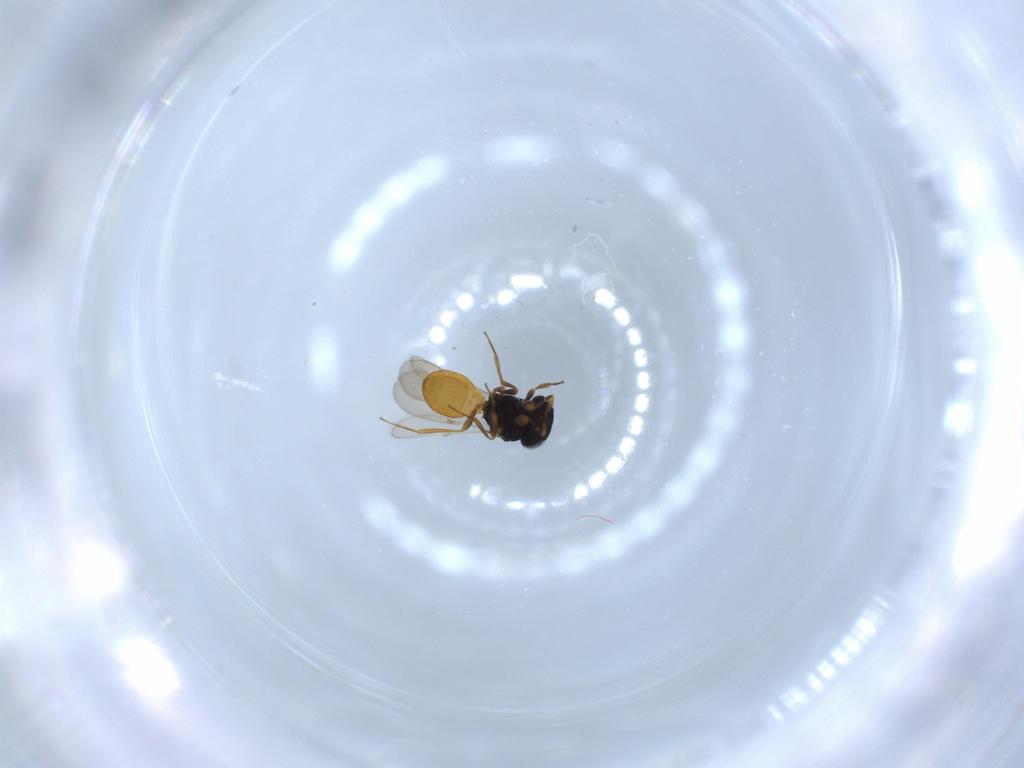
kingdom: Animalia
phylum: Arthropoda
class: Insecta
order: Hymenoptera
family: Scelionidae
